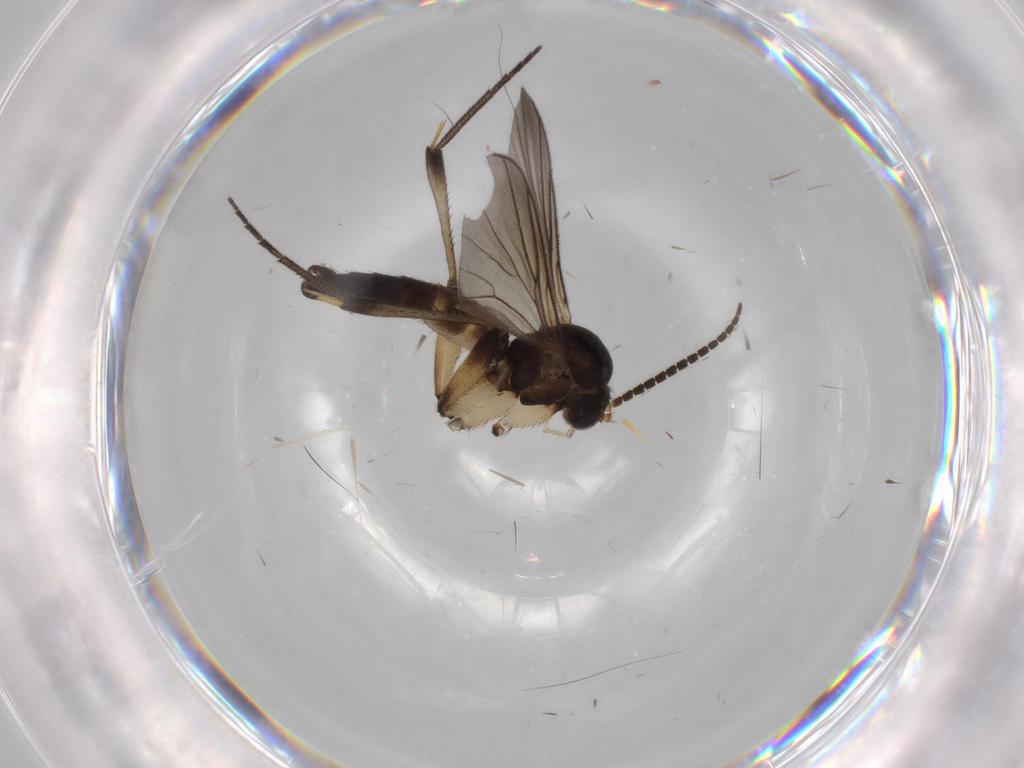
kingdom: Animalia
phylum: Arthropoda
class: Insecta
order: Diptera
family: Mycetophilidae
